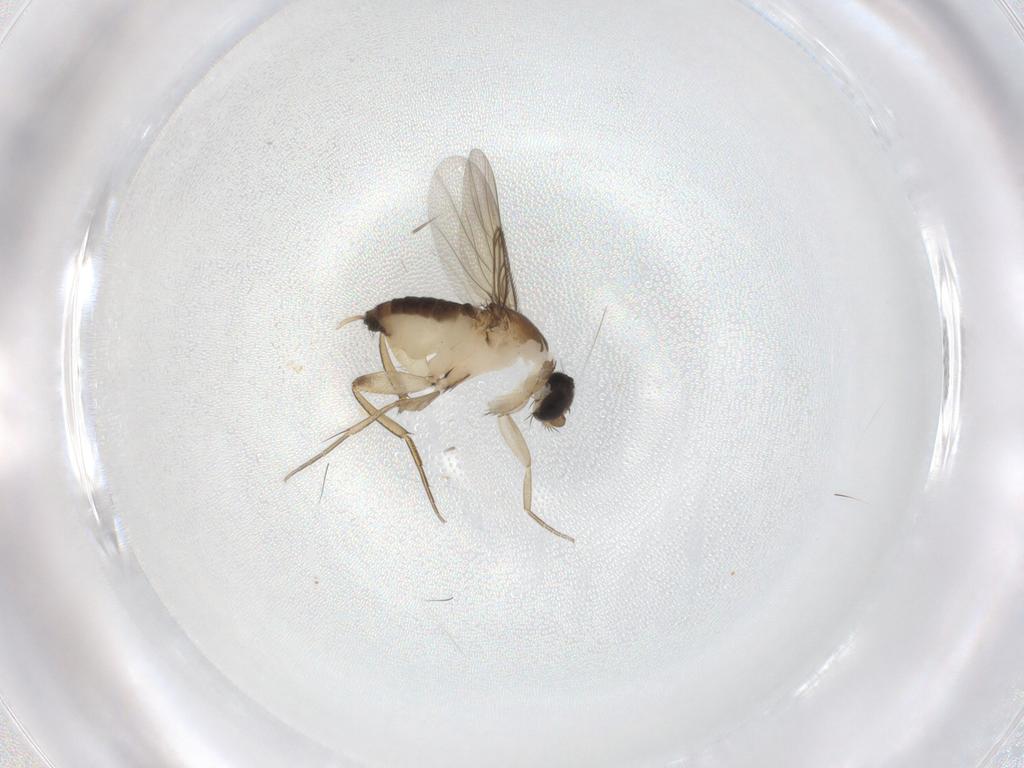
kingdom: Animalia
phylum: Arthropoda
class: Insecta
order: Diptera
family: Phoridae
